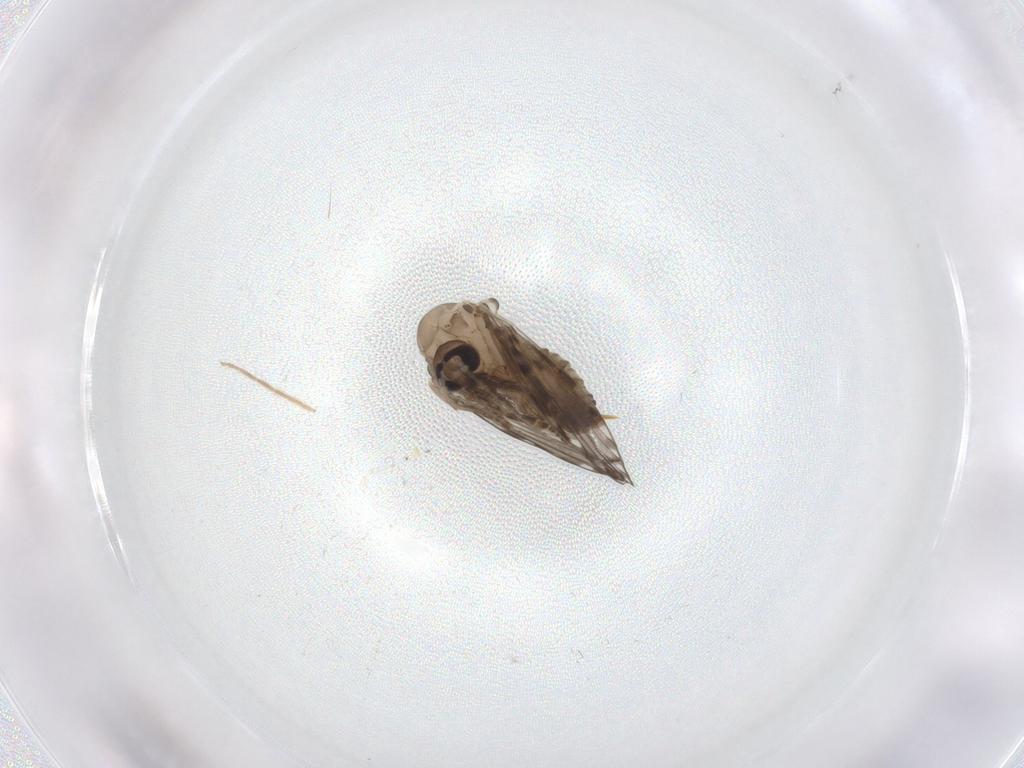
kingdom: Animalia
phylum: Arthropoda
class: Insecta
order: Diptera
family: Psychodidae
